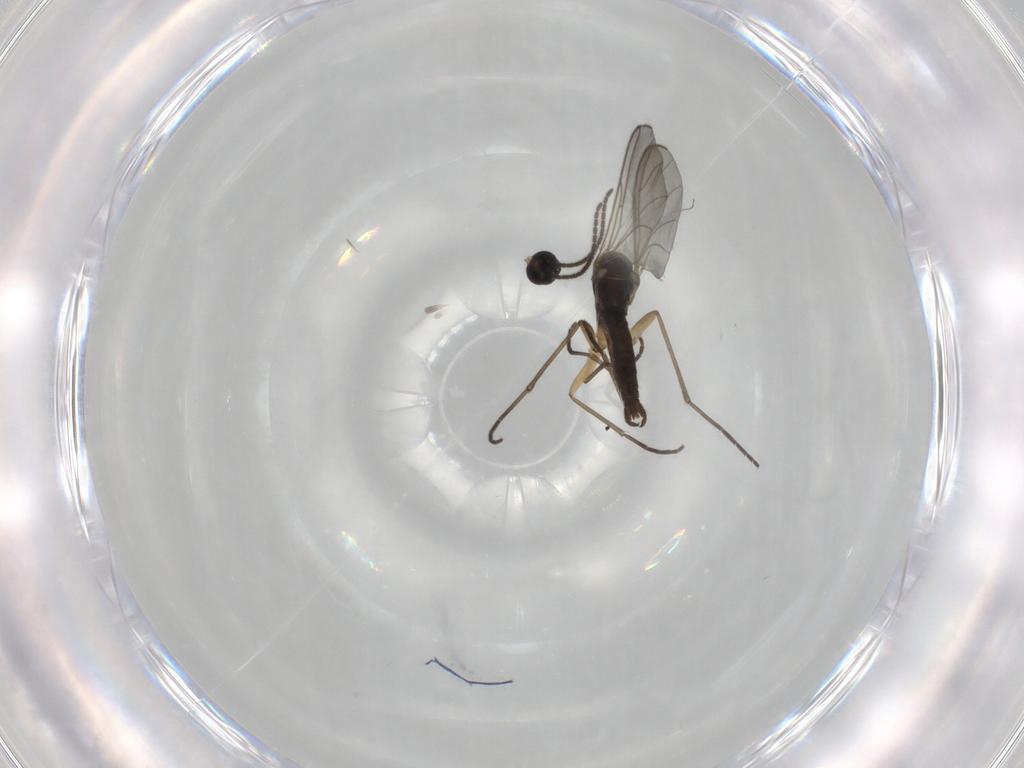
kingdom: Animalia
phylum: Arthropoda
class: Insecta
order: Diptera
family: Sciaridae
